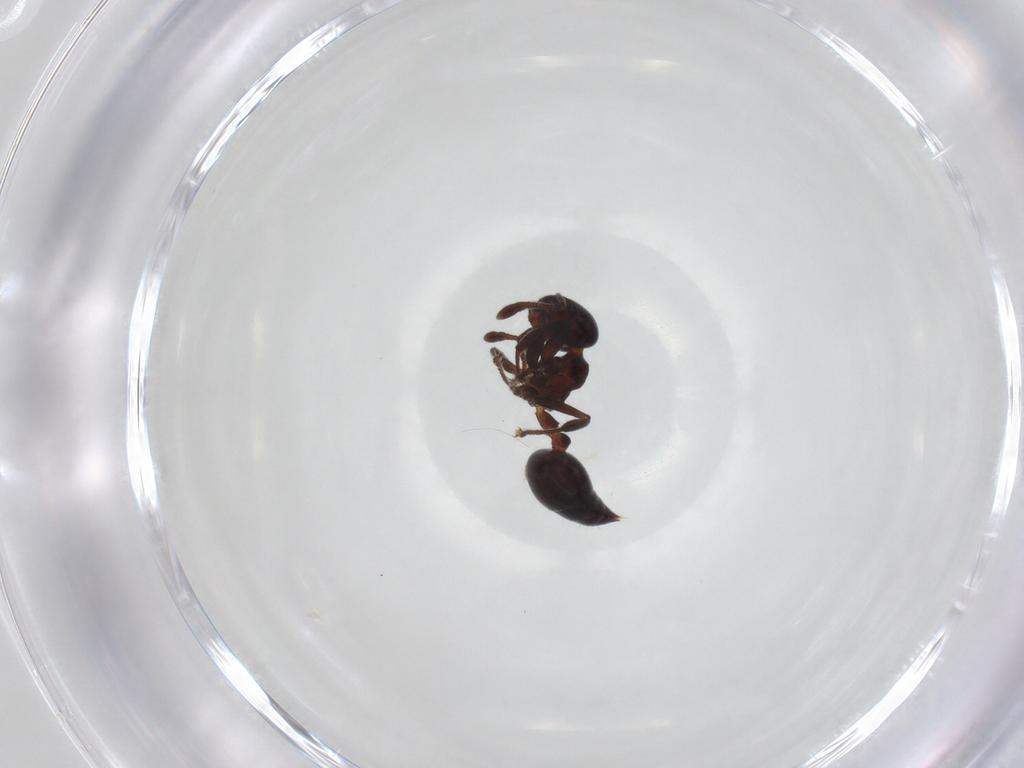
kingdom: Animalia
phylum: Arthropoda
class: Insecta
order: Hymenoptera
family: Formicidae
